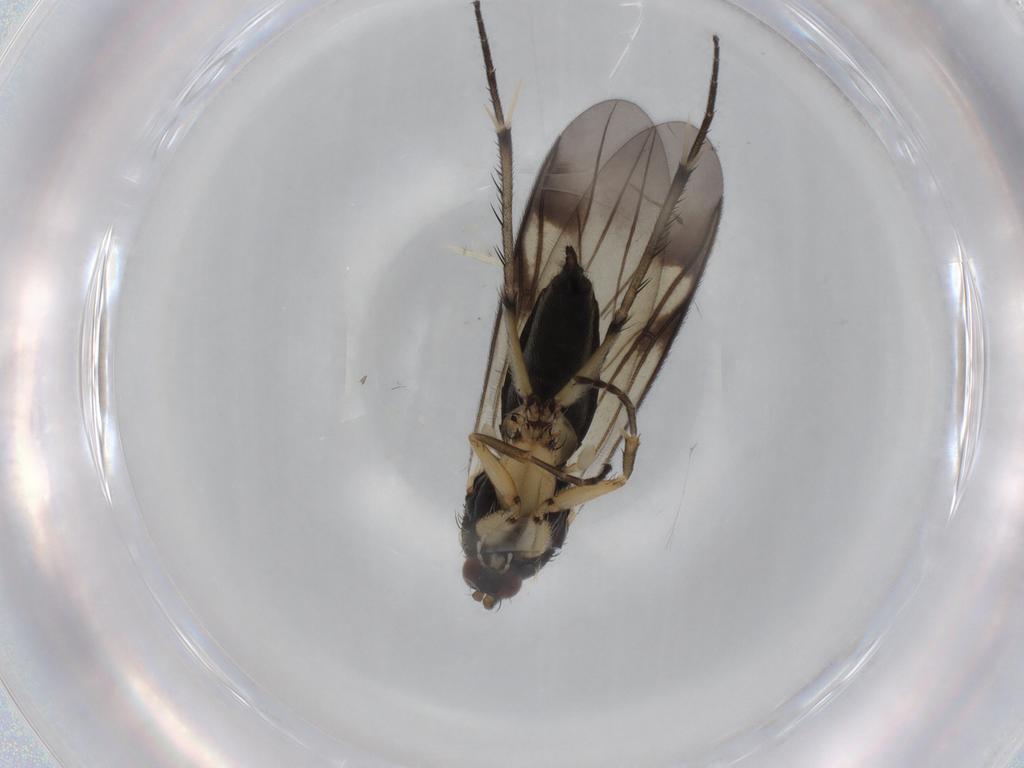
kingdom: Animalia
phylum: Arthropoda
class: Insecta
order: Diptera
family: Mycetophilidae
